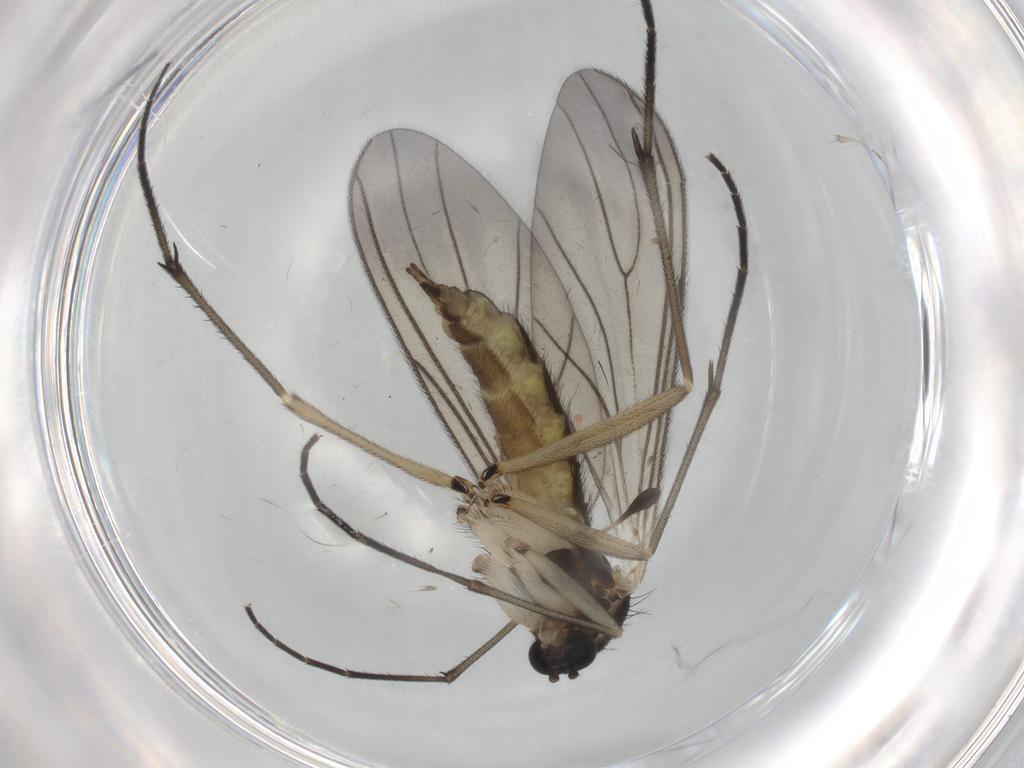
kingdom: Animalia
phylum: Arthropoda
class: Insecta
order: Diptera
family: Sciaridae
